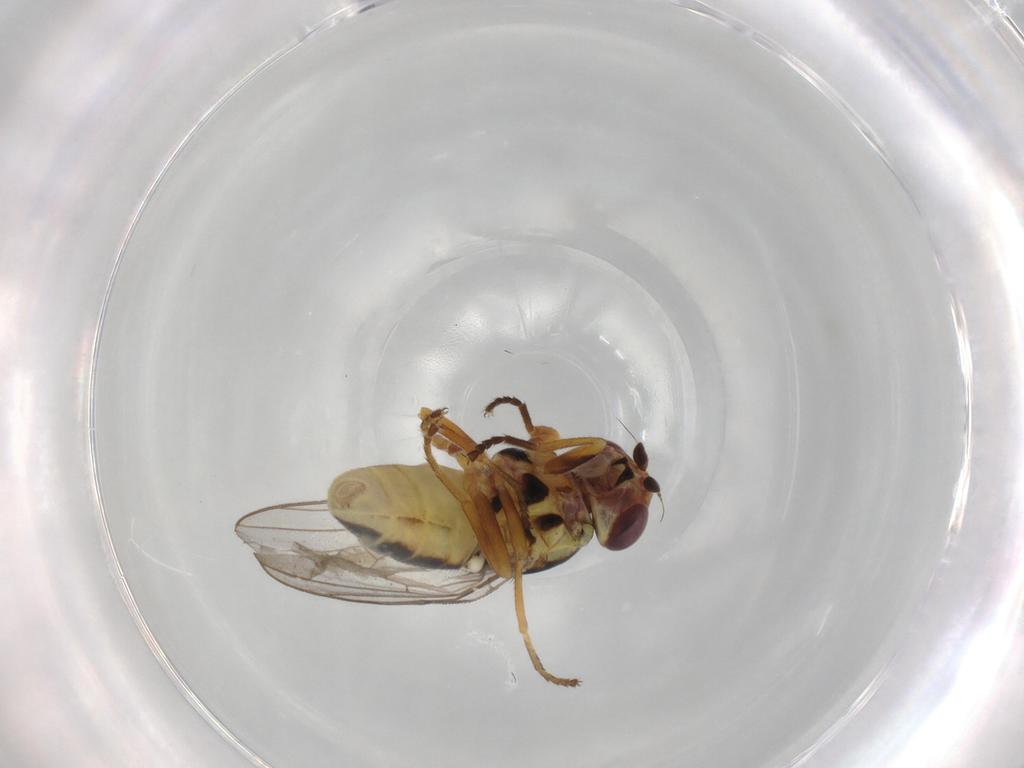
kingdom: Animalia
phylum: Arthropoda
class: Insecta
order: Diptera
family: Chloropidae
